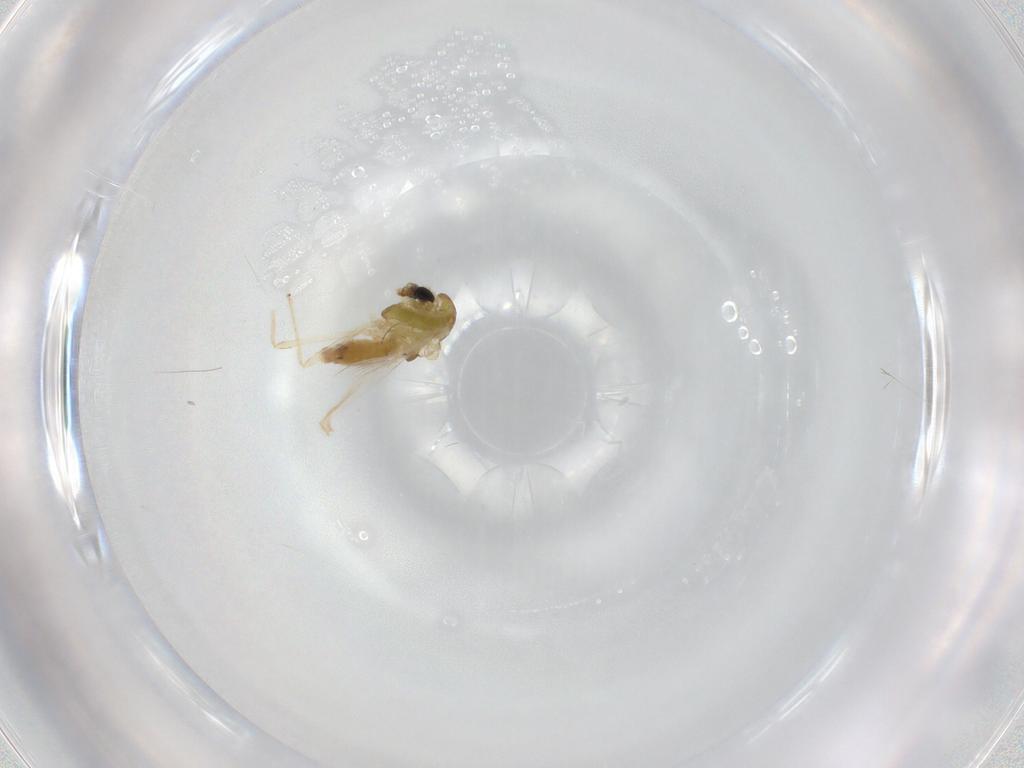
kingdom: Animalia
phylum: Arthropoda
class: Insecta
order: Diptera
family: Chironomidae
